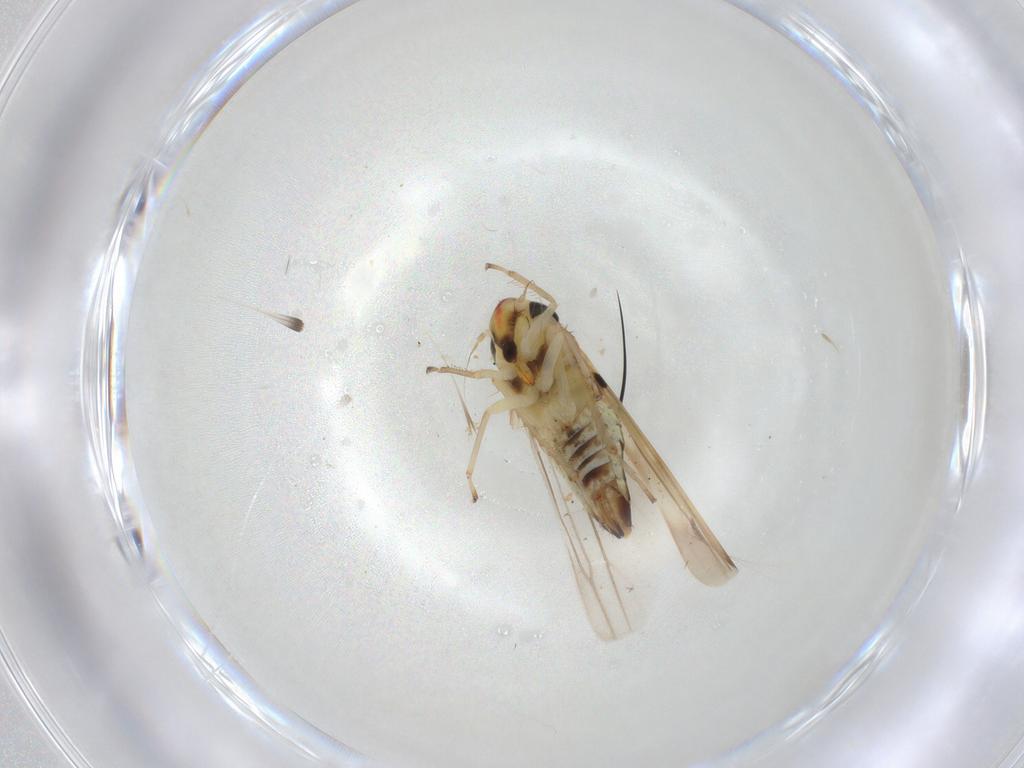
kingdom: Animalia
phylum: Arthropoda
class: Insecta
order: Hemiptera
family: Cicadellidae
